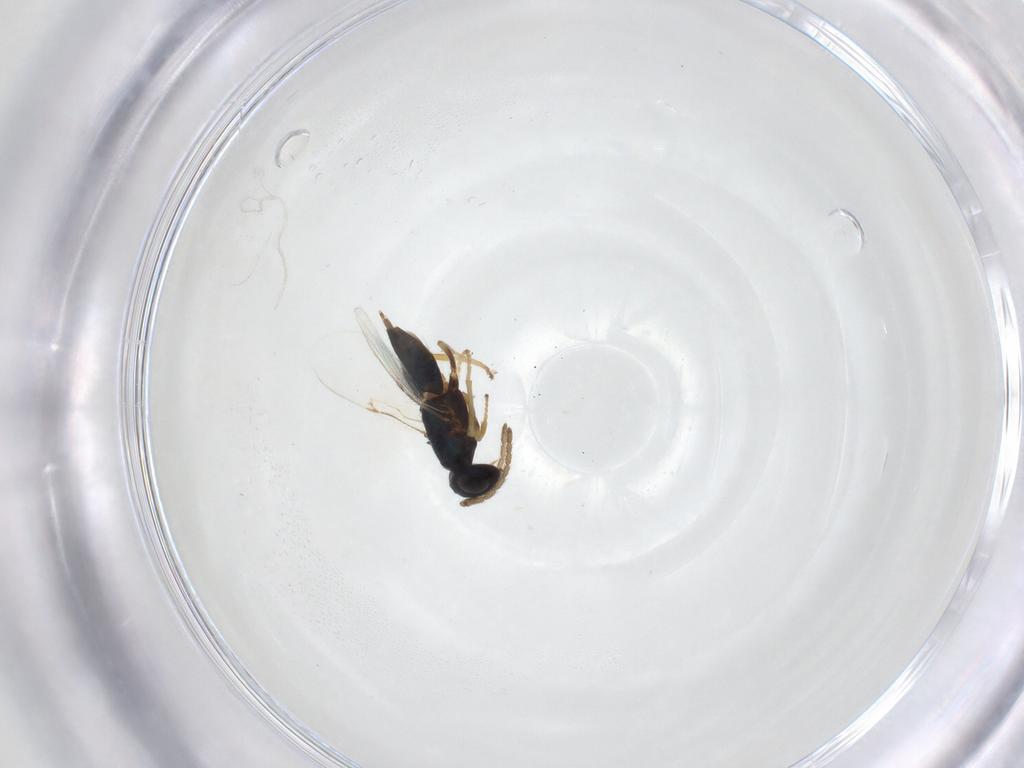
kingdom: Animalia
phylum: Arthropoda
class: Insecta
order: Hymenoptera
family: Encyrtidae
